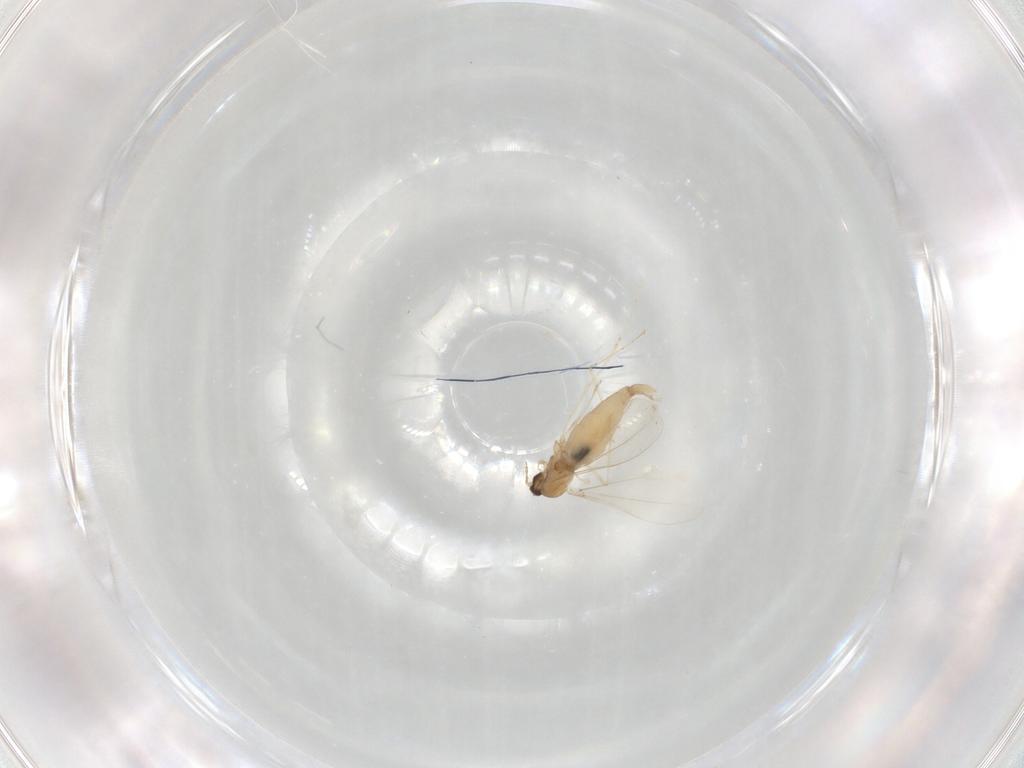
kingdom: Animalia
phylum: Arthropoda
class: Insecta
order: Diptera
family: Cecidomyiidae
